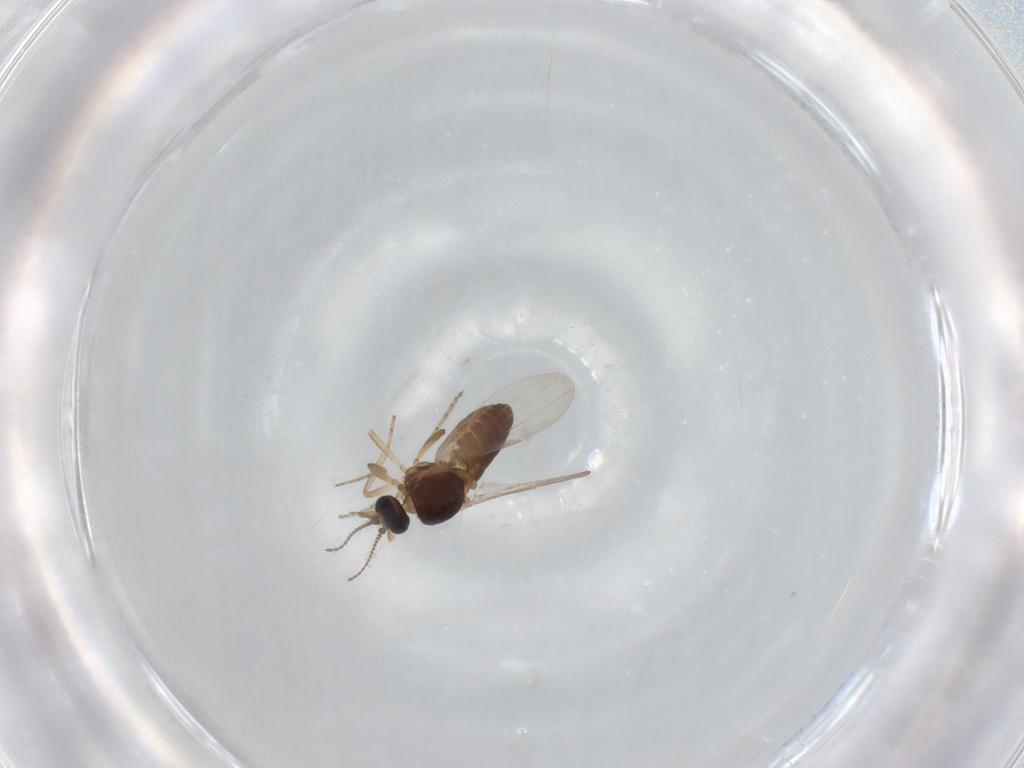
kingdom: Animalia
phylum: Arthropoda
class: Insecta
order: Diptera
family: Ceratopogonidae
